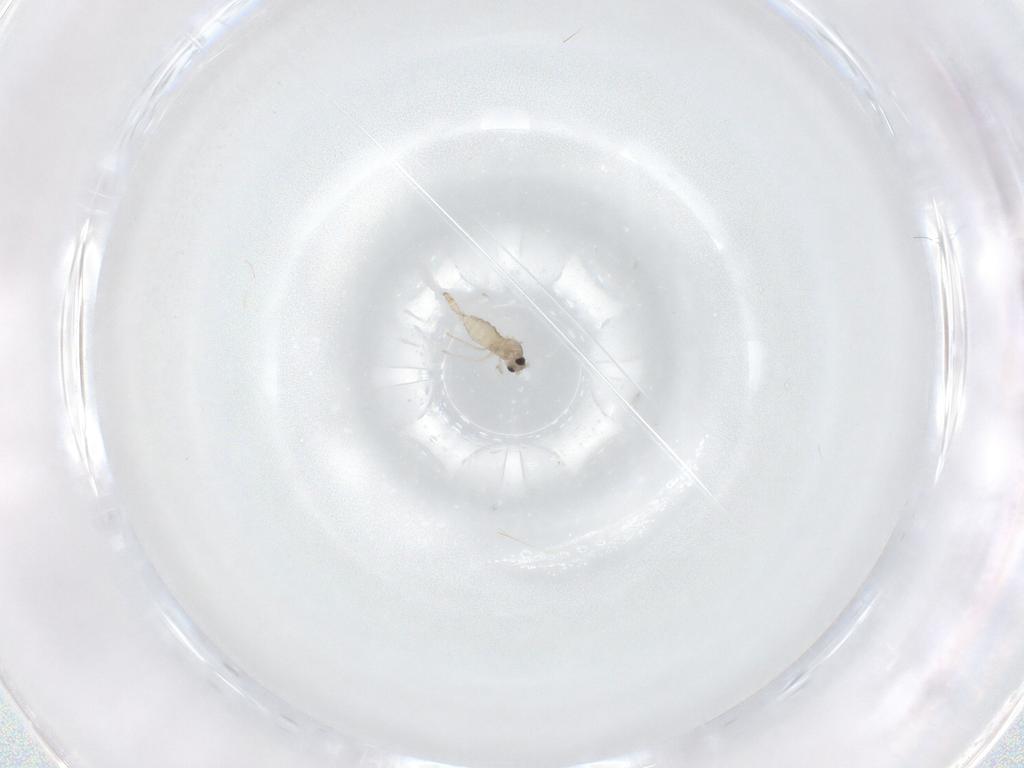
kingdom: Animalia
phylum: Arthropoda
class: Insecta
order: Diptera
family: Cecidomyiidae
